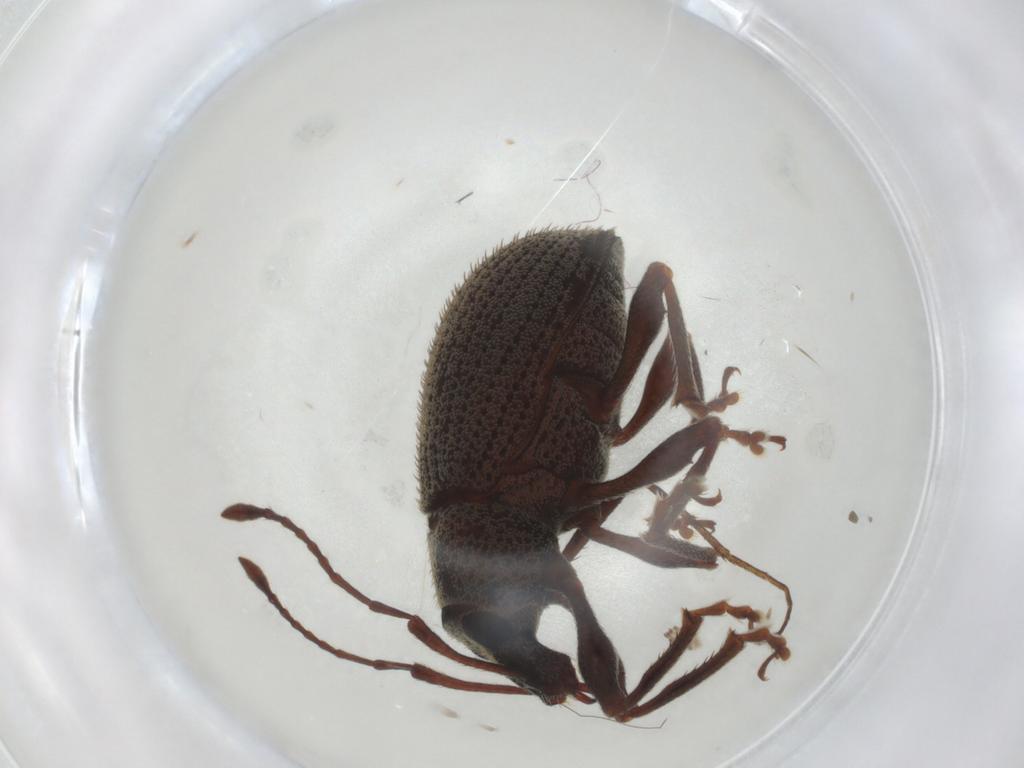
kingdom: Animalia
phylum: Arthropoda
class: Insecta
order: Coleoptera
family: Curculionidae
